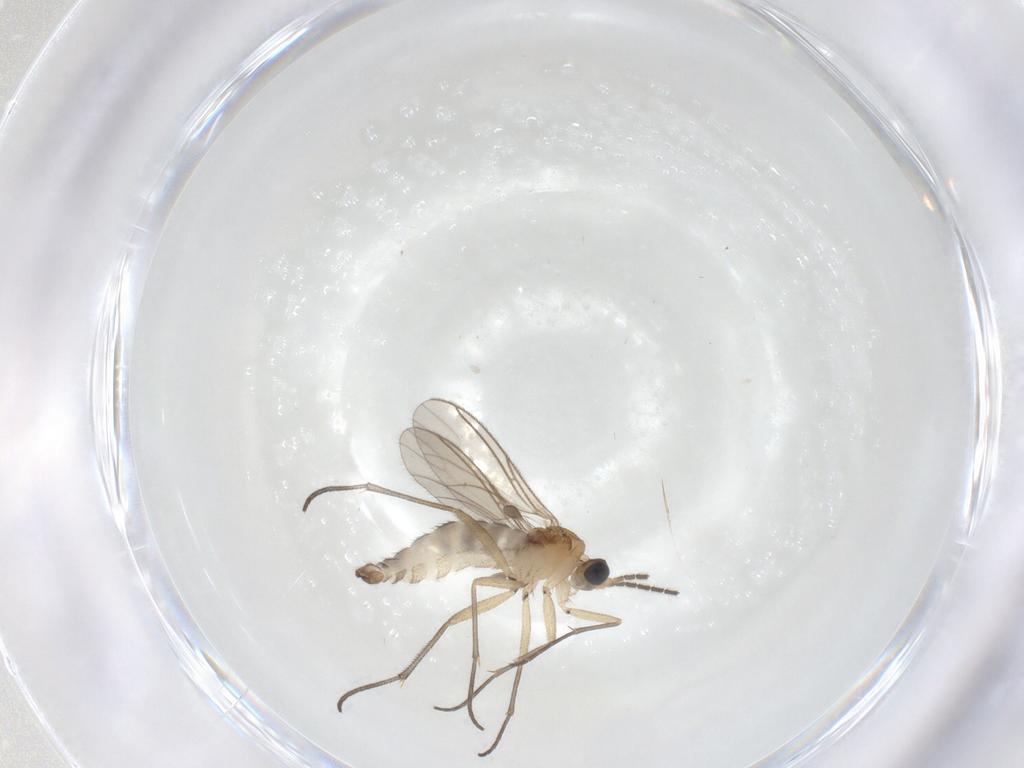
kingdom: Animalia
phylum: Arthropoda
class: Insecta
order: Diptera
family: Sciaridae
